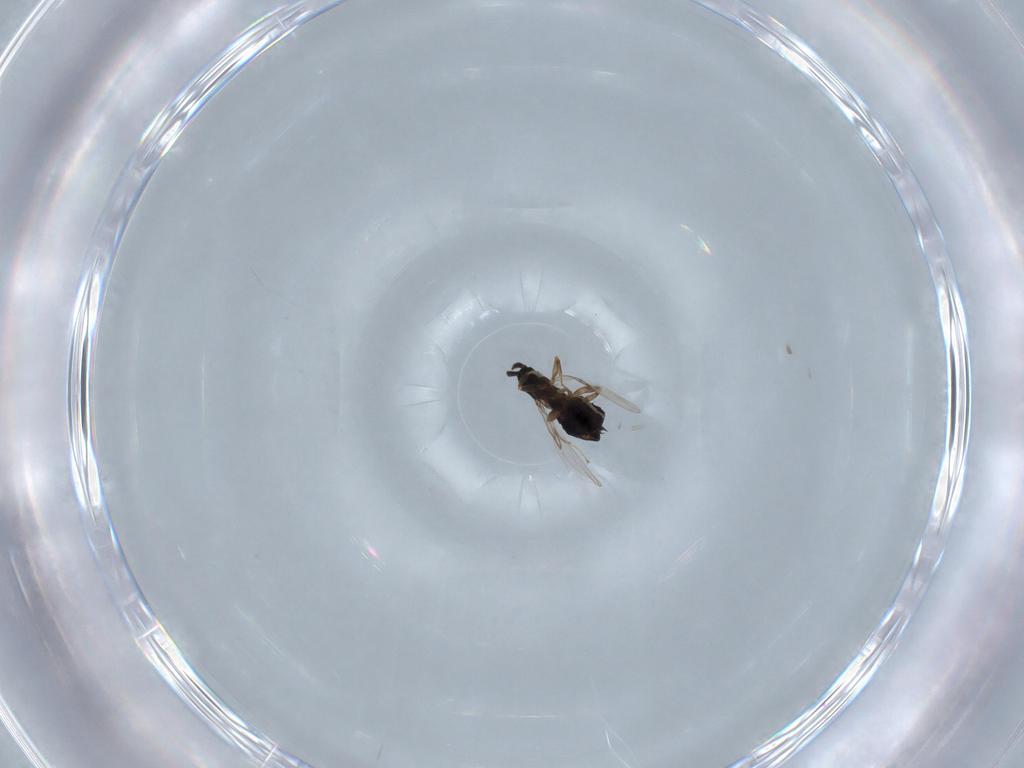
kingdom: Animalia
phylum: Arthropoda
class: Insecta
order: Diptera
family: Scatopsidae
